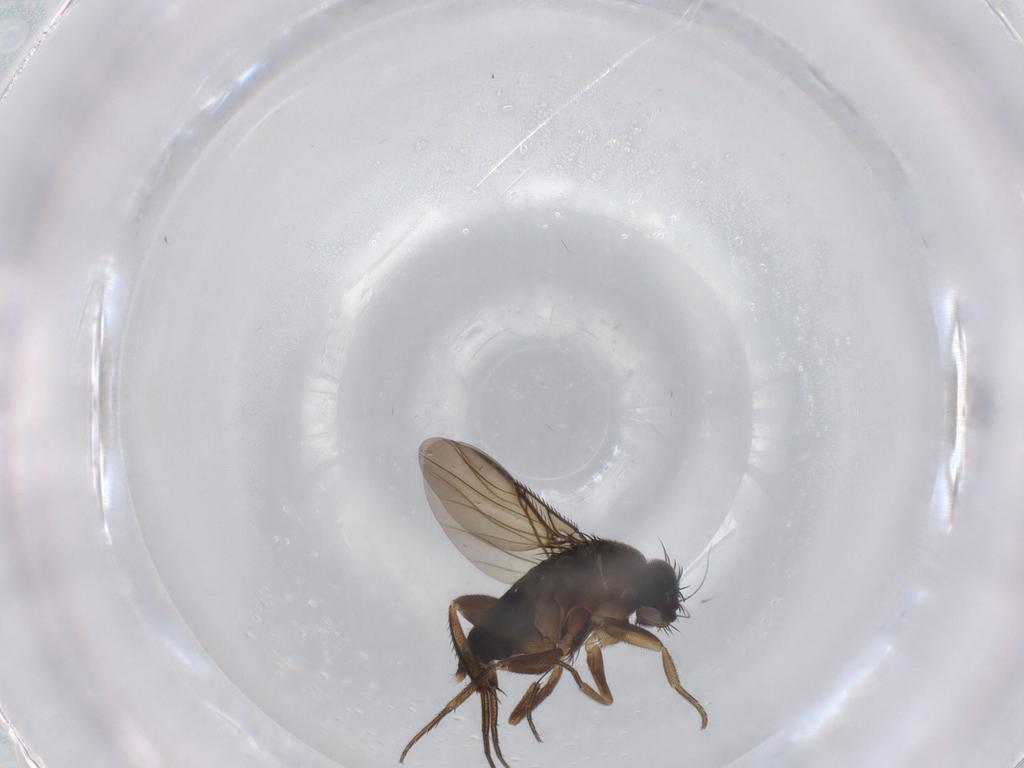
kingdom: Animalia
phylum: Arthropoda
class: Insecta
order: Diptera
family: Phoridae
